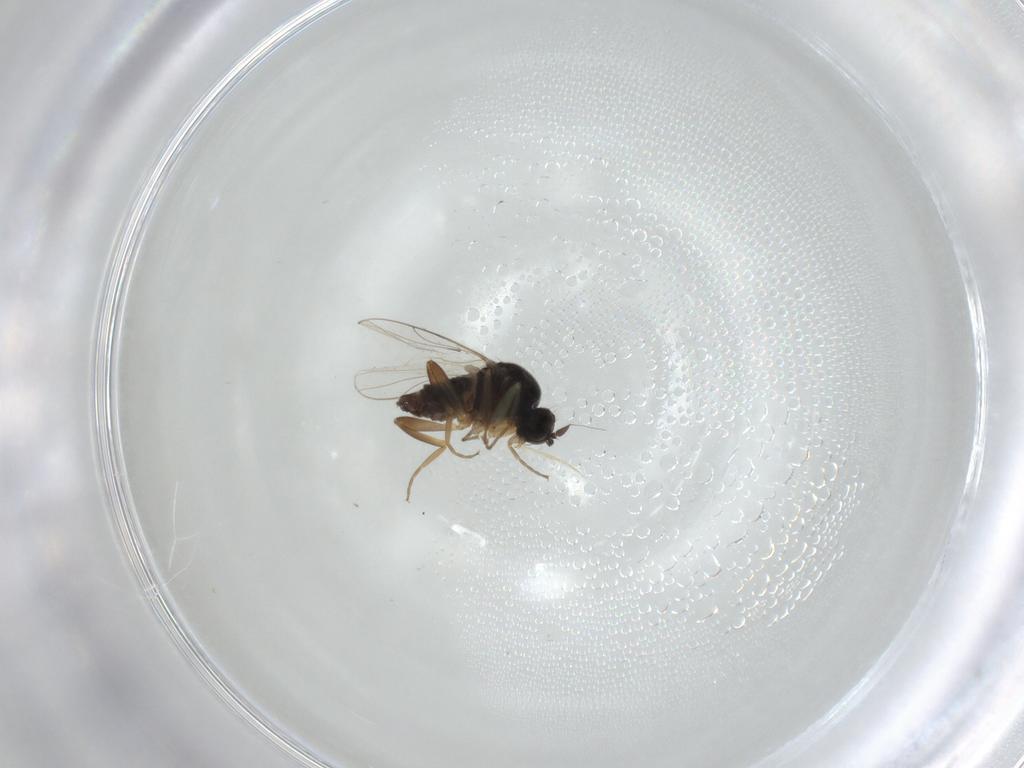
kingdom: Animalia
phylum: Arthropoda
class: Insecta
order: Diptera
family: Hybotidae
